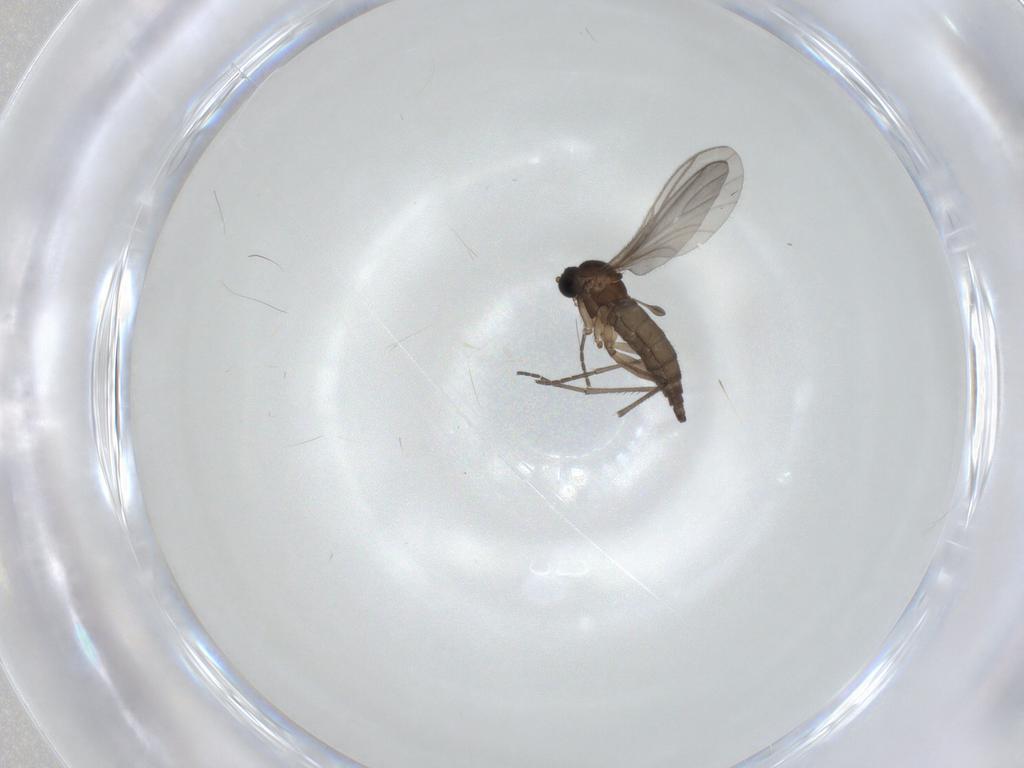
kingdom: Animalia
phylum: Arthropoda
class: Insecta
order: Diptera
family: Sciaridae
